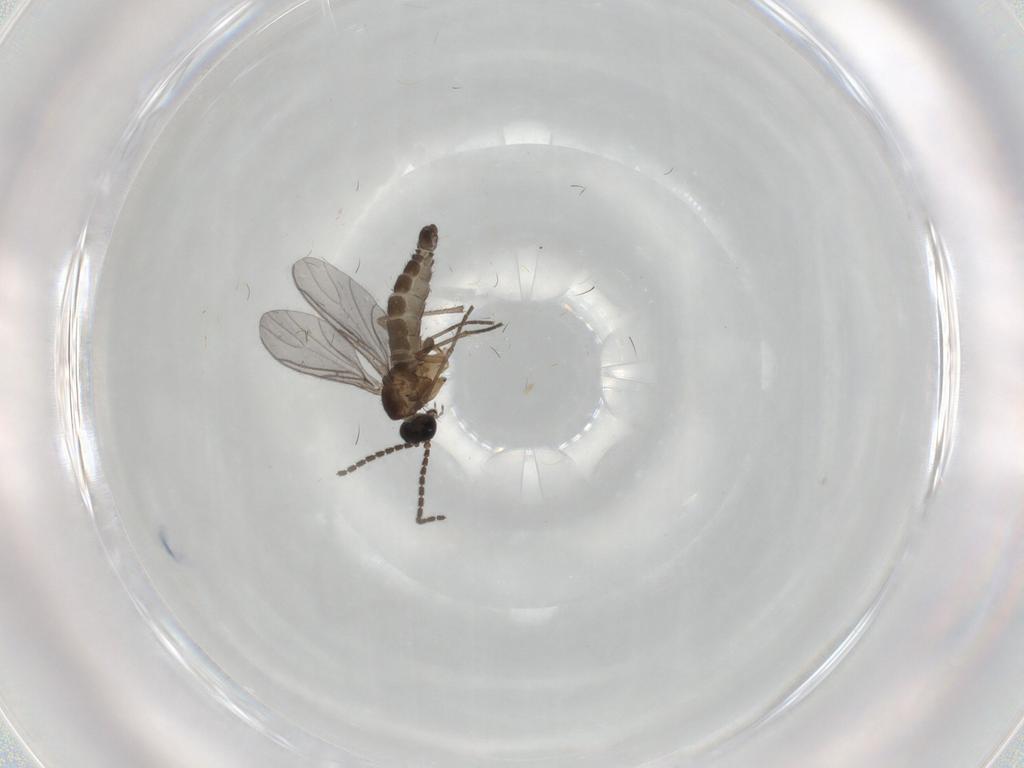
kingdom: Animalia
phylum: Arthropoda
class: Insecta
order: Diptera
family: Sciaridae
